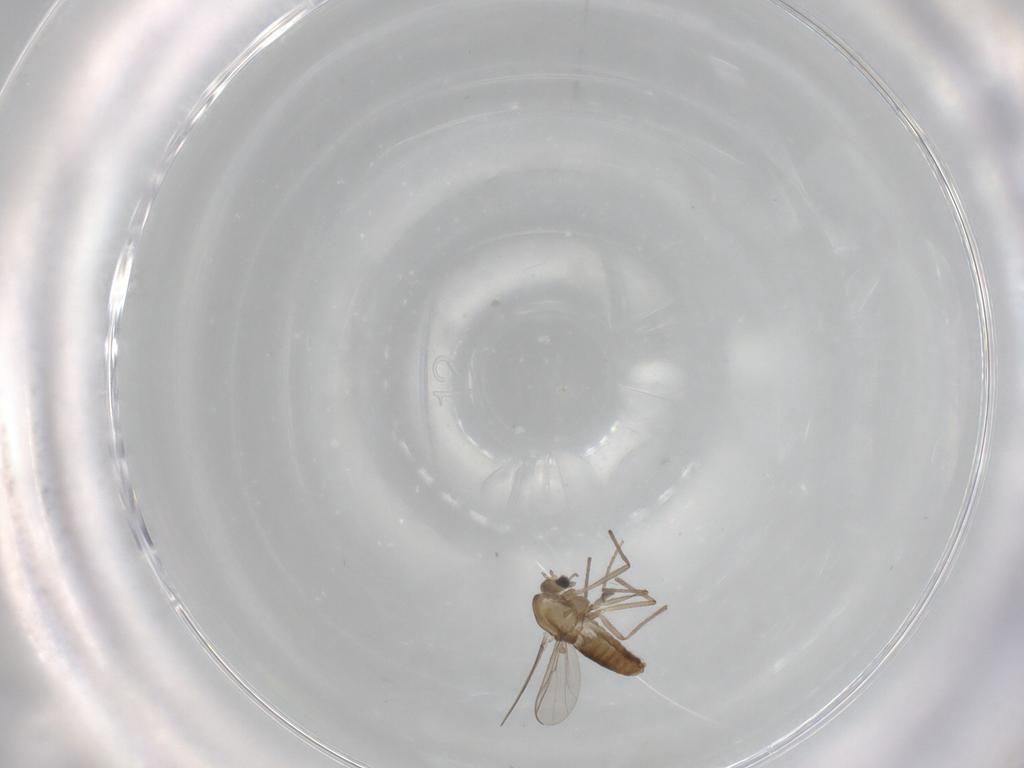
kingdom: Animalia
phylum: Arthropoda
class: Insecta
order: Diptera
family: Chironomidae
